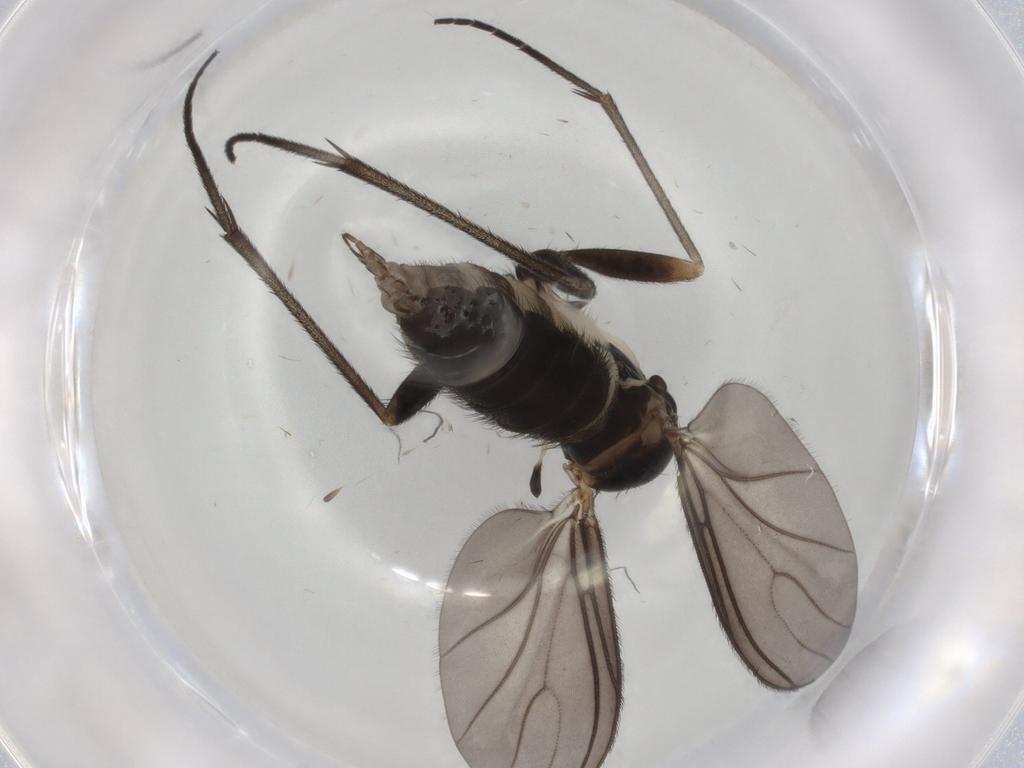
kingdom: Animalia
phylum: Arthropoda
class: Insecta
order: Diptera
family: Sciaridae
